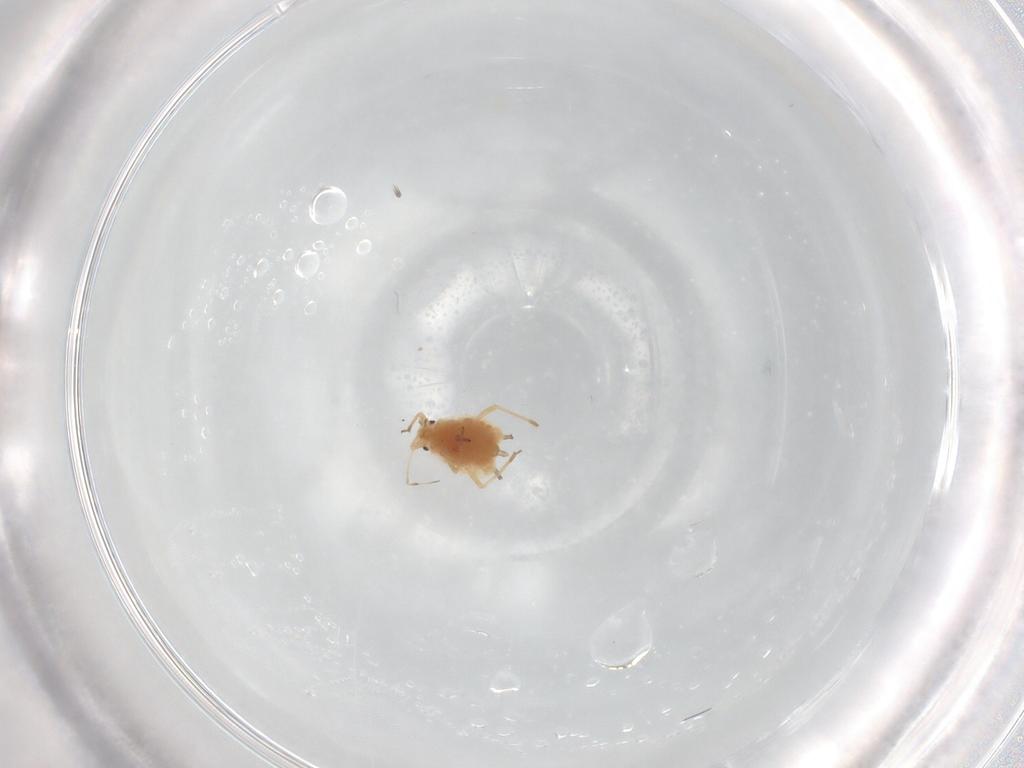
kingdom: Animalia
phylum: Arthropoda
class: Insecta
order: Hemiptera
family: Aphididae
